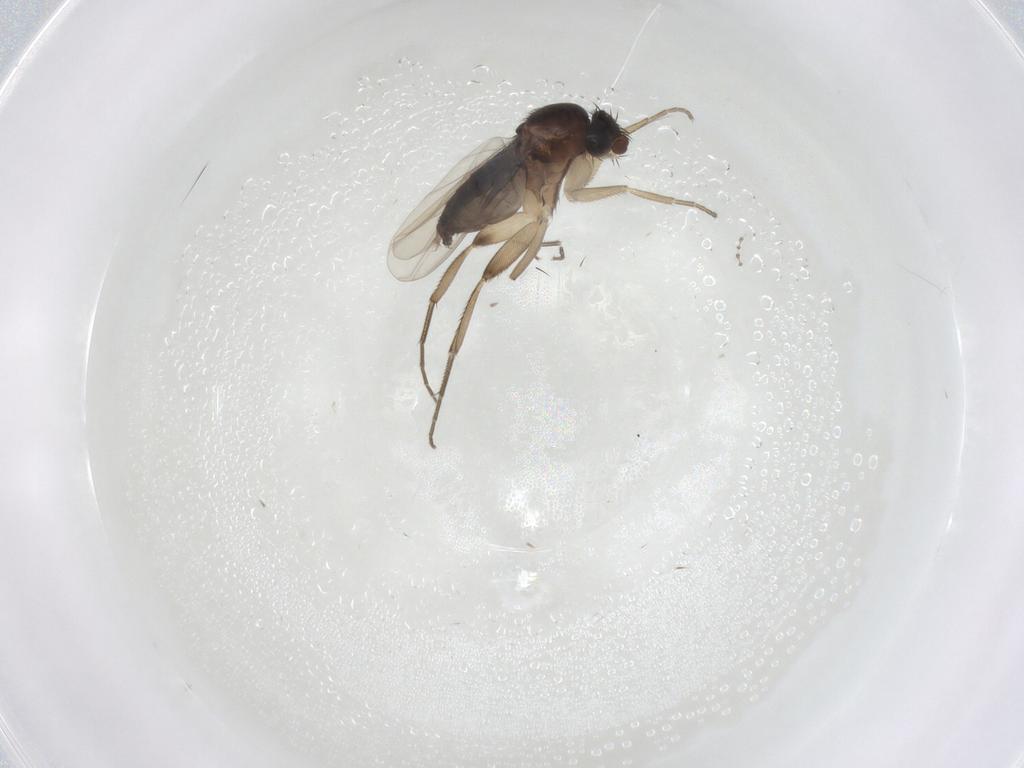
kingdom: Animalia
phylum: Arthropoda
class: Insecta
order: Diptera
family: Phoridae
